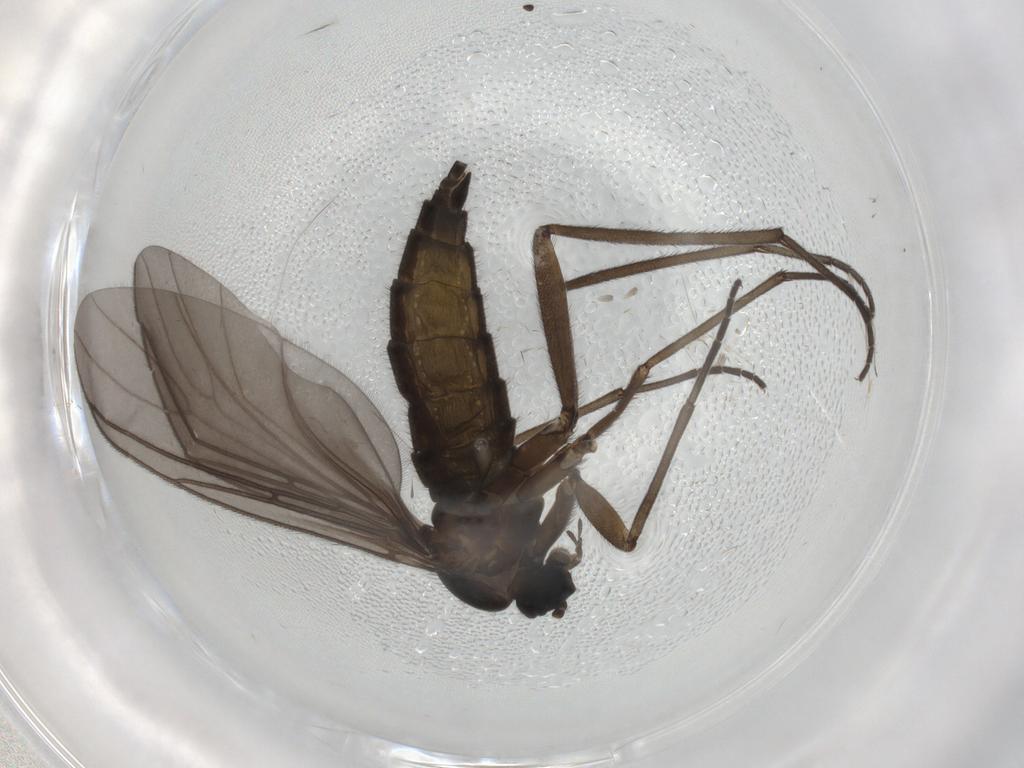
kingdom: Animalia
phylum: Arthropoda
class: Insecta
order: Diptera
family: Sciaridae
